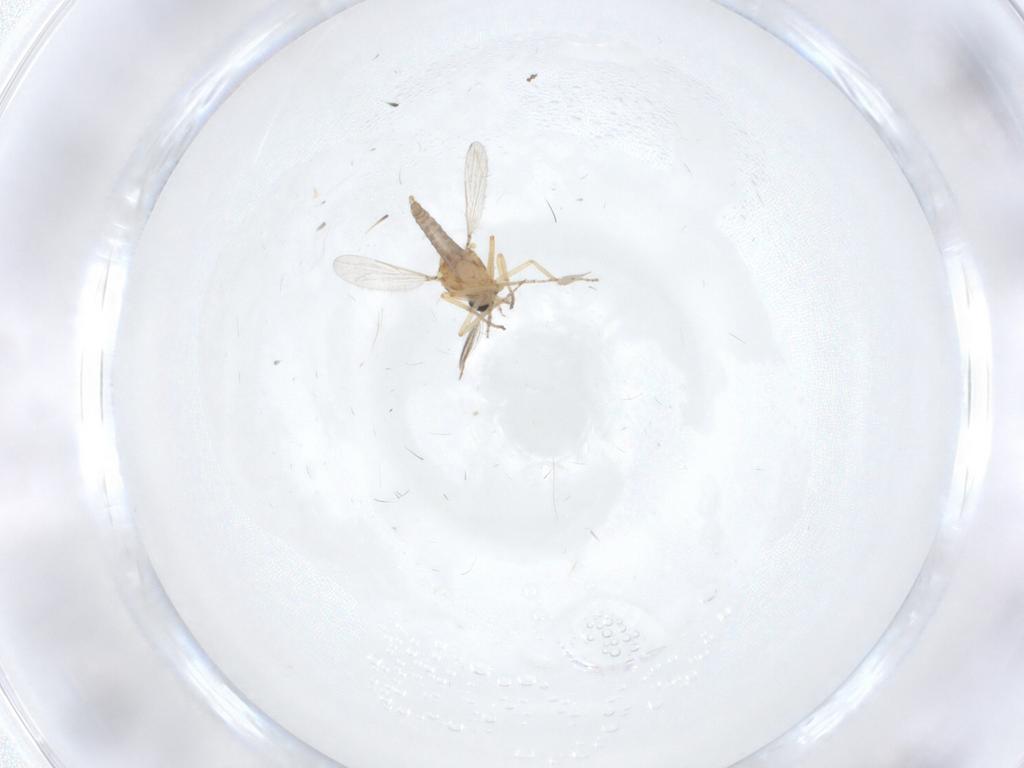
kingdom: Animalia
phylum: Arthropoda
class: Insecta
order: Diptera
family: Ceratopogonidae
